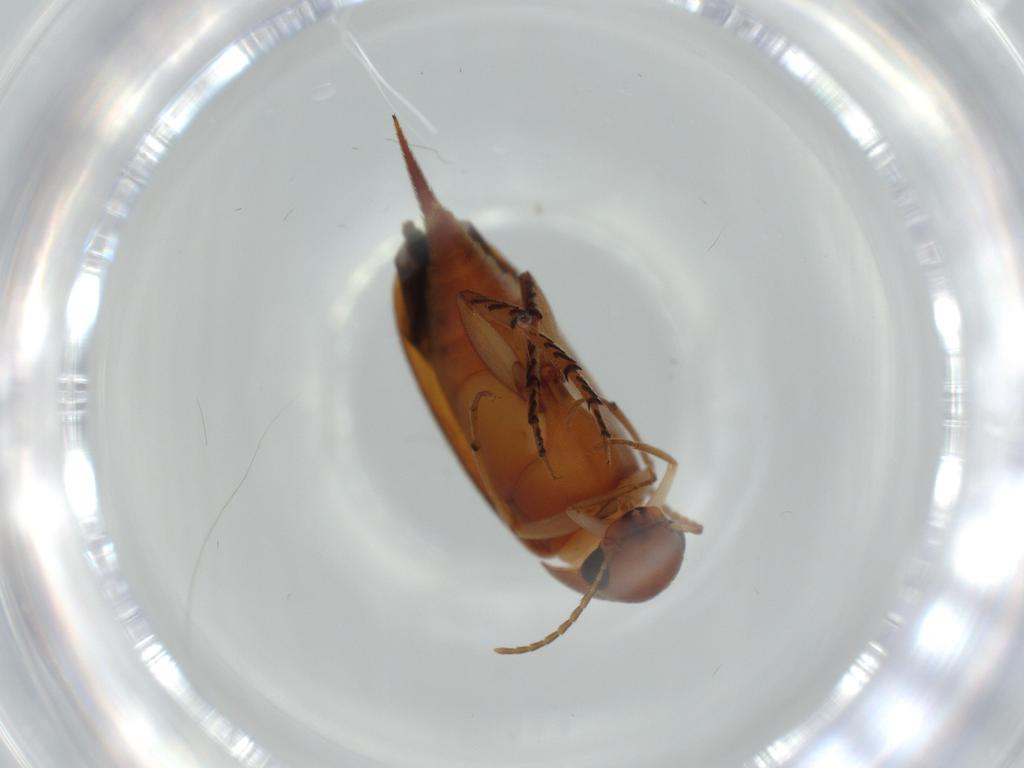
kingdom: Animalia
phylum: Arthropoda
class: Insecta
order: Coleoptera
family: Mordellidae
